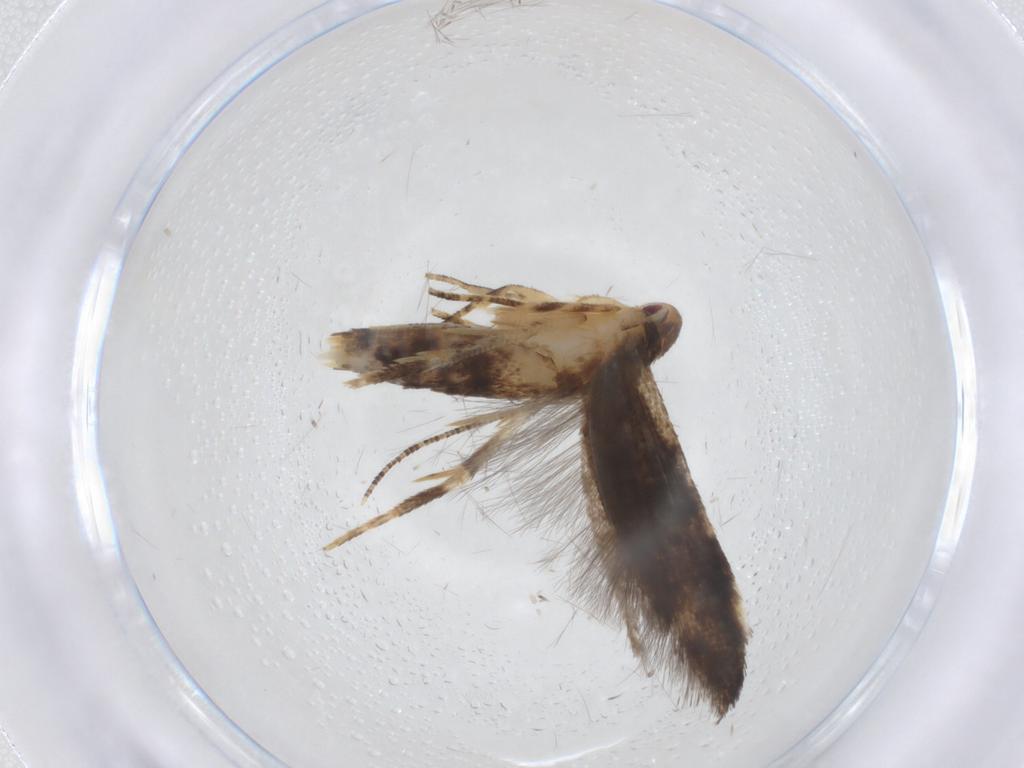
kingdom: Animalia
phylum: Arthropoda
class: Insecta
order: Lepidoptera
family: Momphidae
